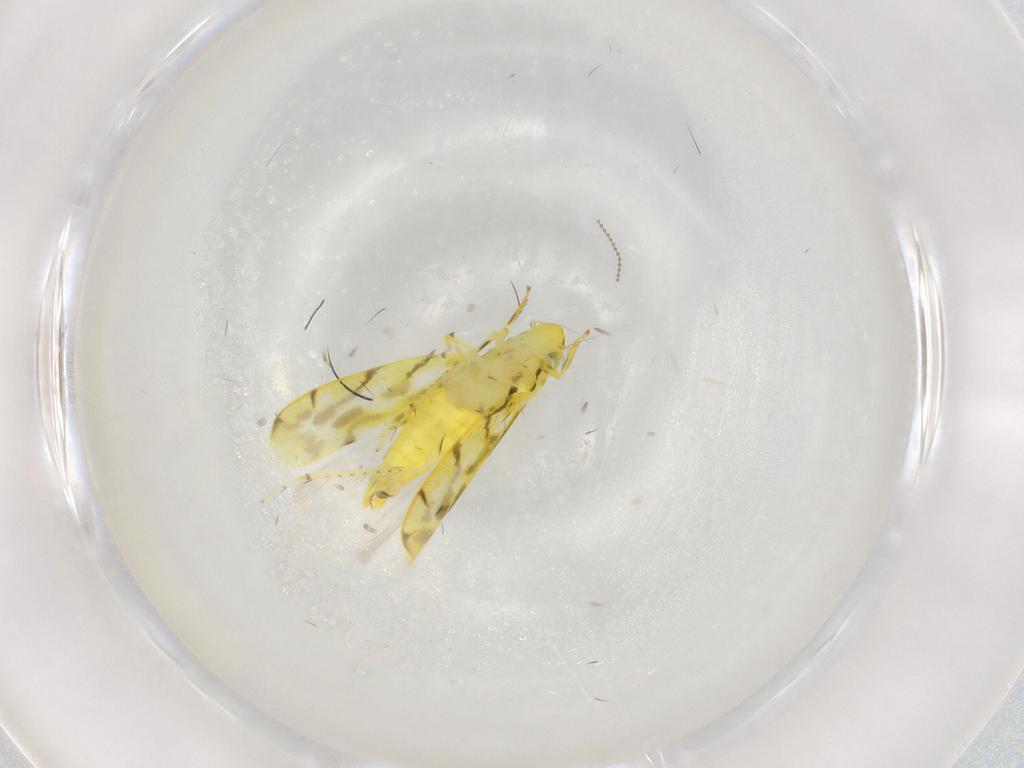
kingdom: Animalia
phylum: Arthropoda
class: Insecta
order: Hemiptera
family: Cicadellidae
